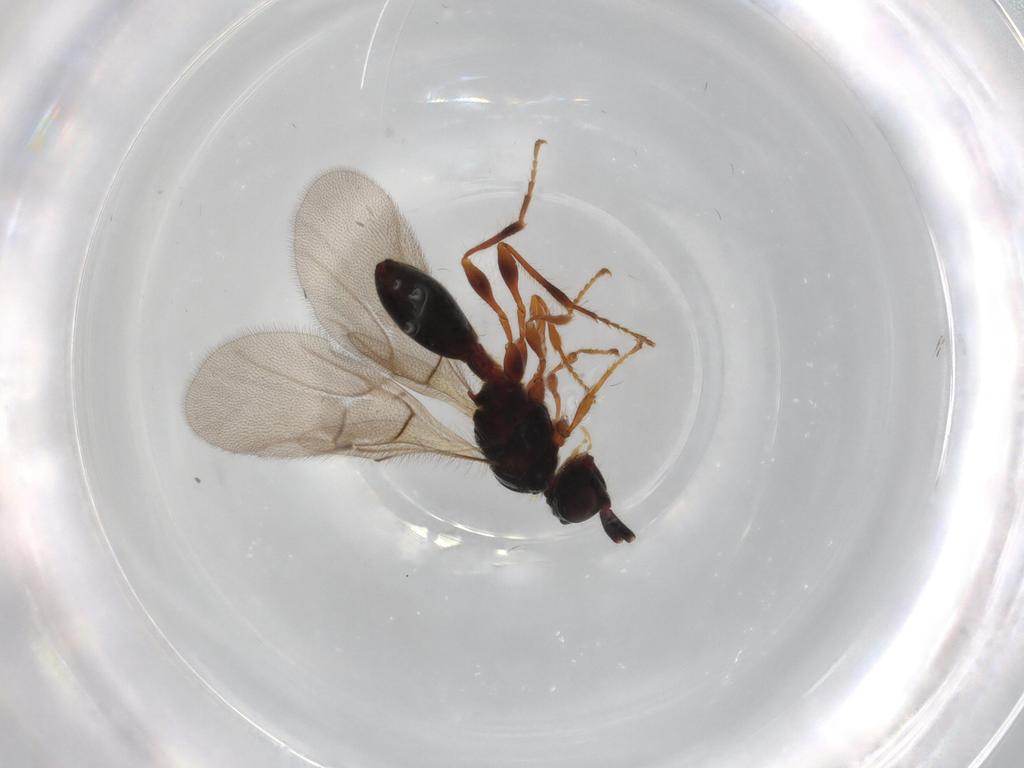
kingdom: Animalia
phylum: Arthropoda
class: Insecta
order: Hymenoptera
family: Diapriidae
